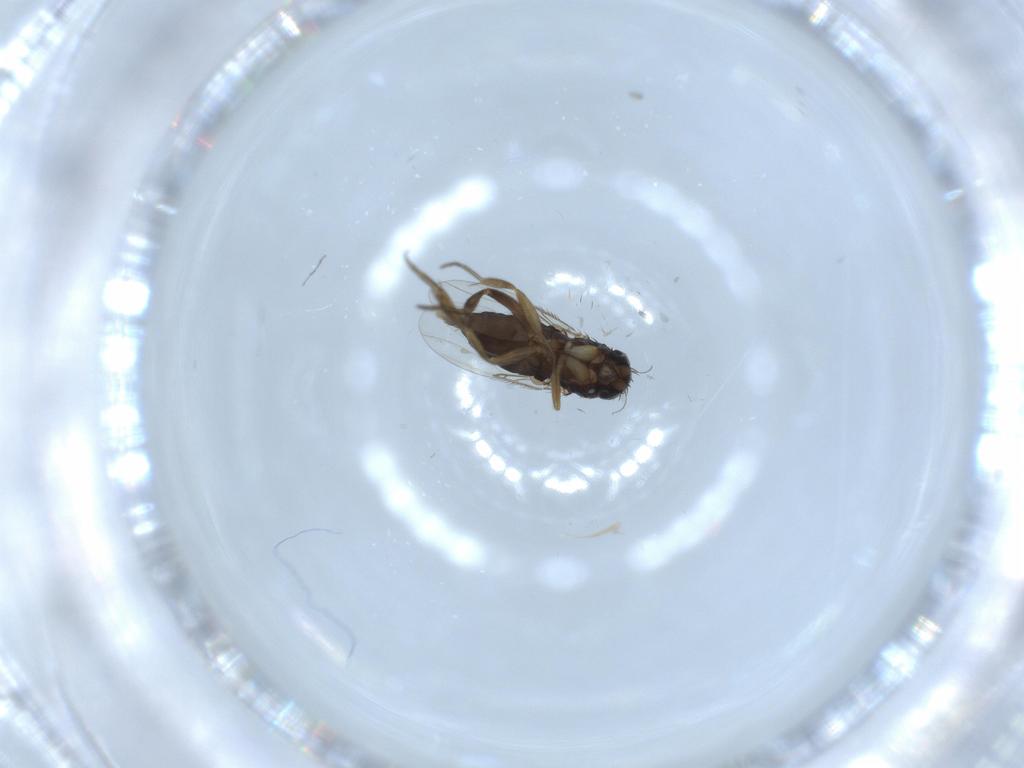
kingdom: Animalia
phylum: Arthropoda
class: Insecta
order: Diptera
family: Phoridae
